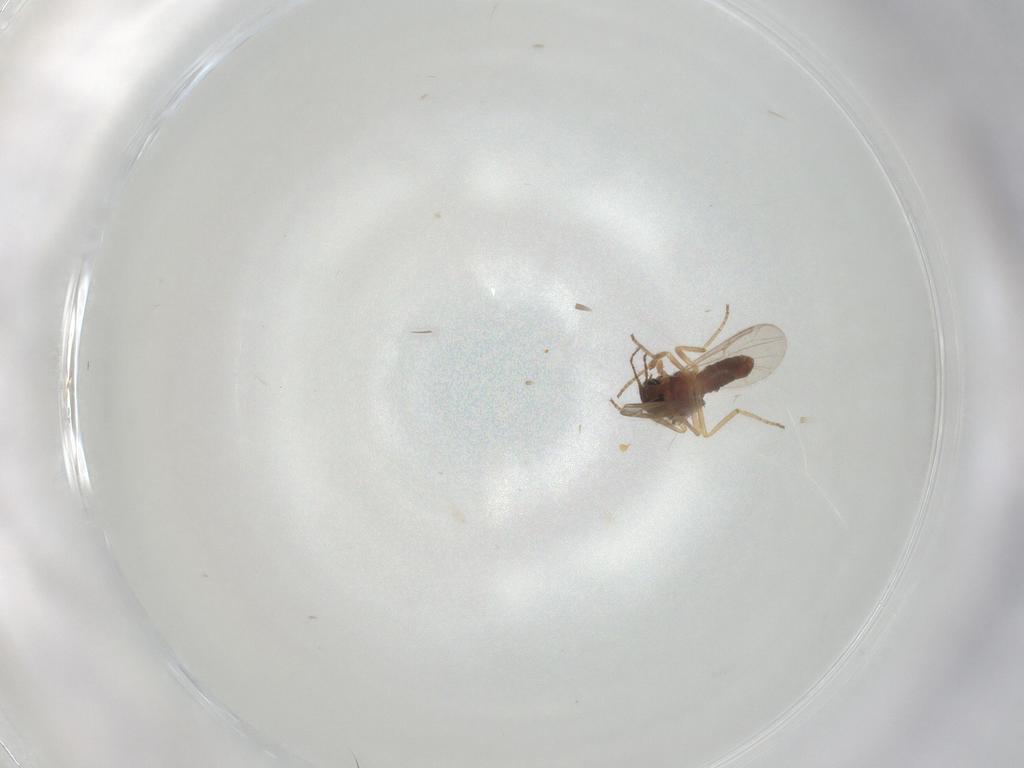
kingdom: Animalia
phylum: Arthropoda
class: Insecta
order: Diptera
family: Ceratopogonidae
